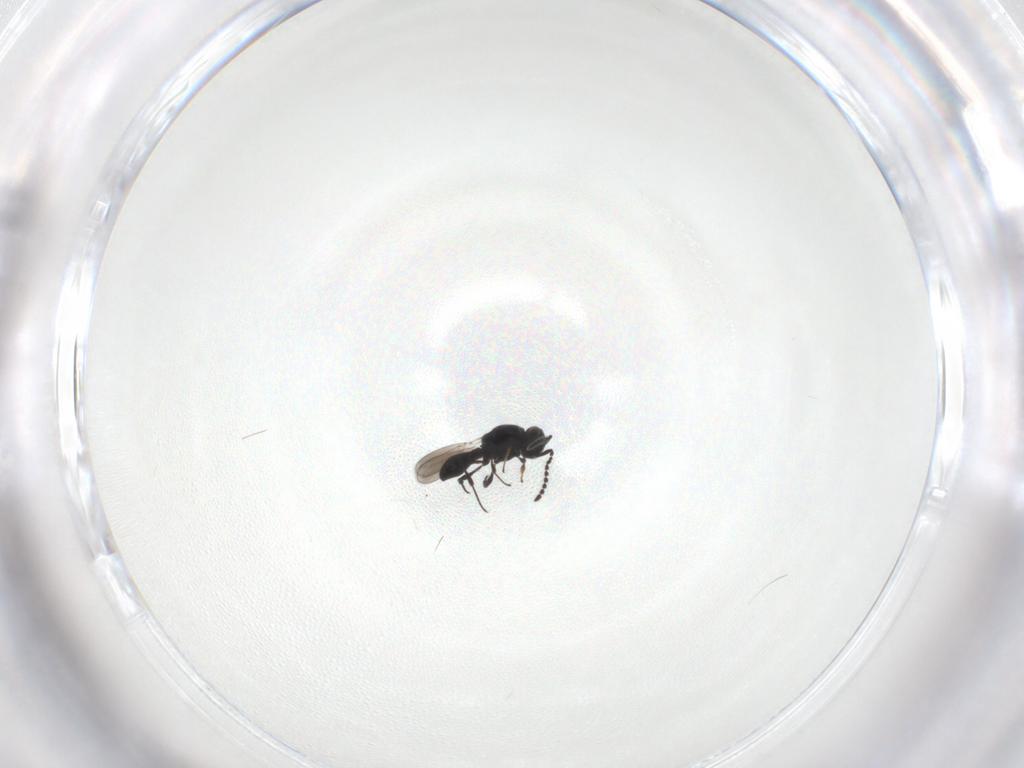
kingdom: Animalia
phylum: Arthropoda
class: Insecta
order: Hymenoptera
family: Platygastridae
